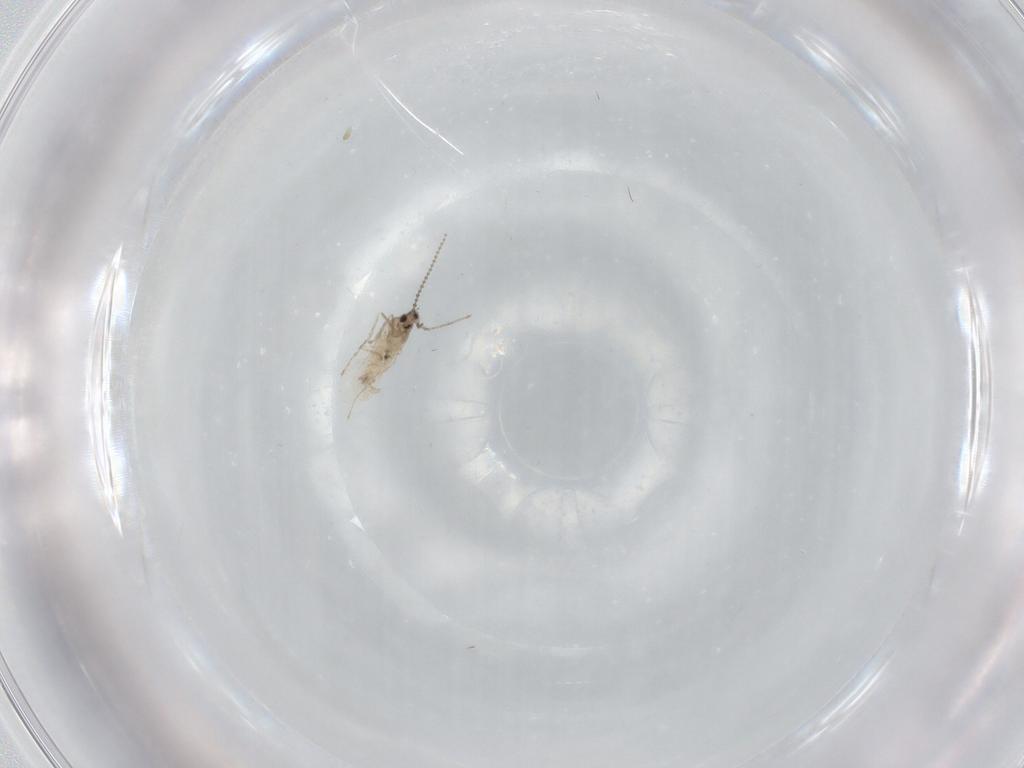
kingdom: Animalia
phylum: Arthropoda
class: Insecta
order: Diptera
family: Cecidomyiidae
